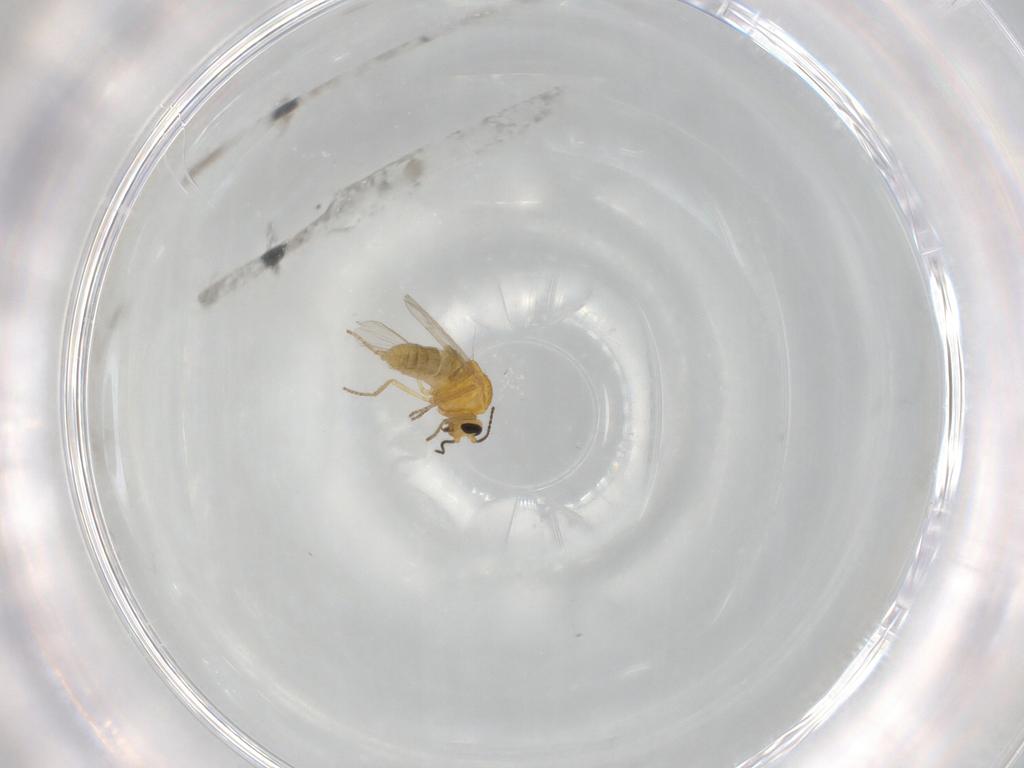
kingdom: Animalia
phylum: Arthropoda
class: Insecta
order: Diptera
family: Ceratopogonidae
